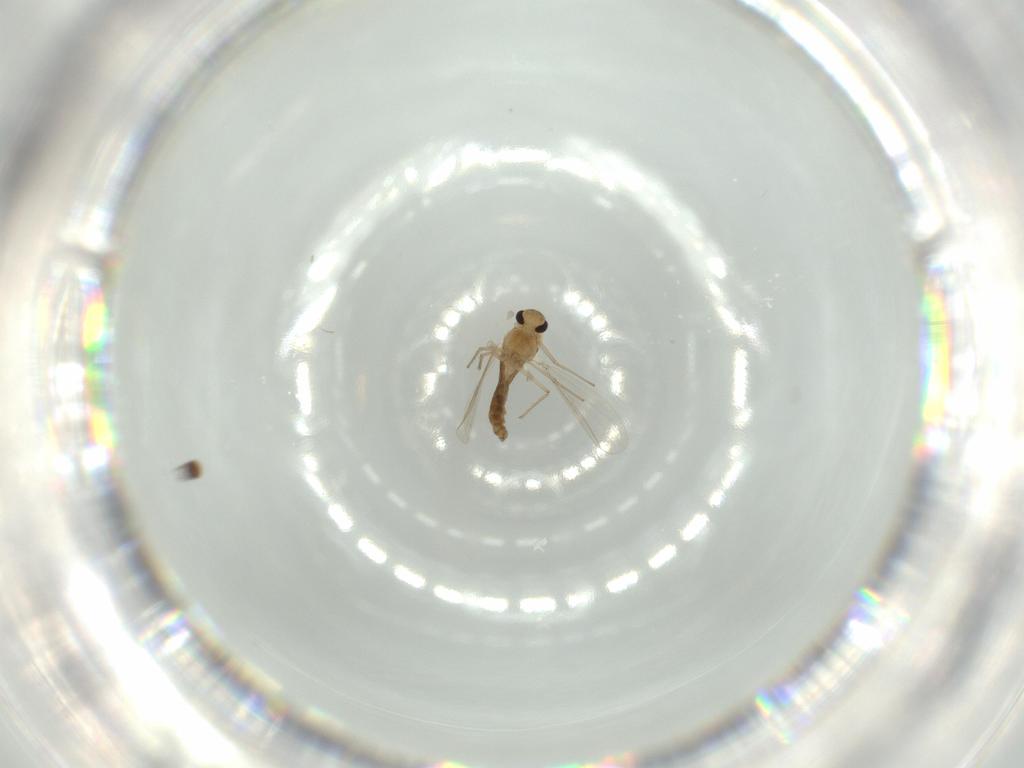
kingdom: Animalia
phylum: Arthropoda
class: Insecta
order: Diptera
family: Chironomidae
